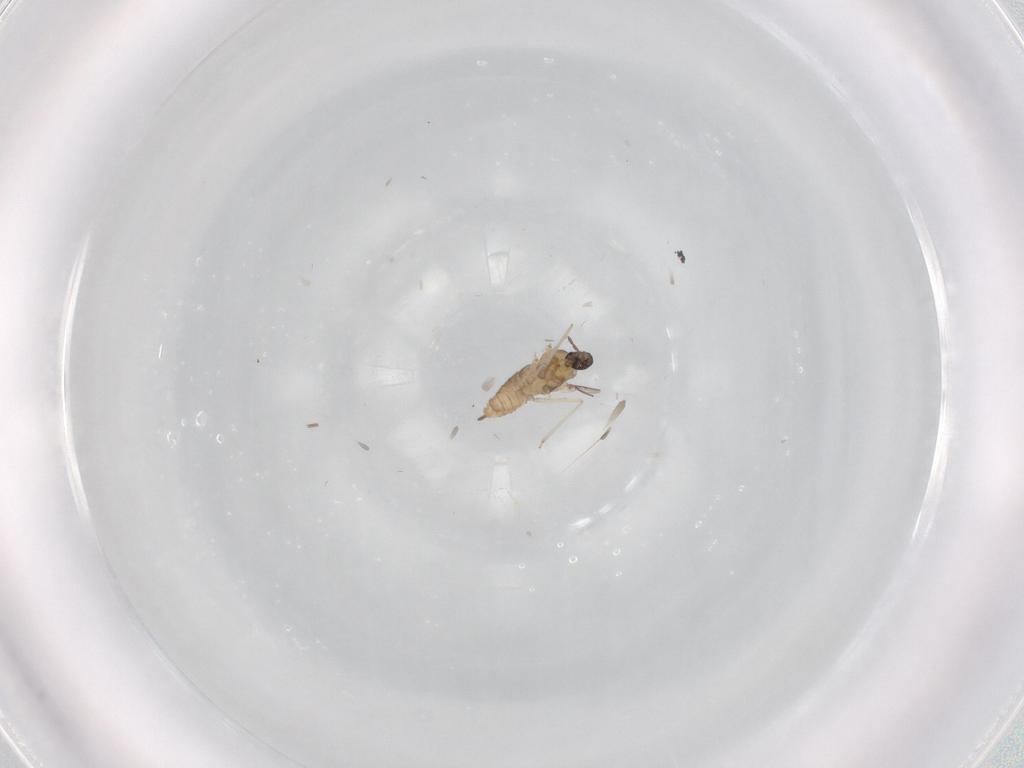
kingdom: Animalia
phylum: Arthropoda
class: Insecta
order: Diptera
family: Cecidomyiidae
